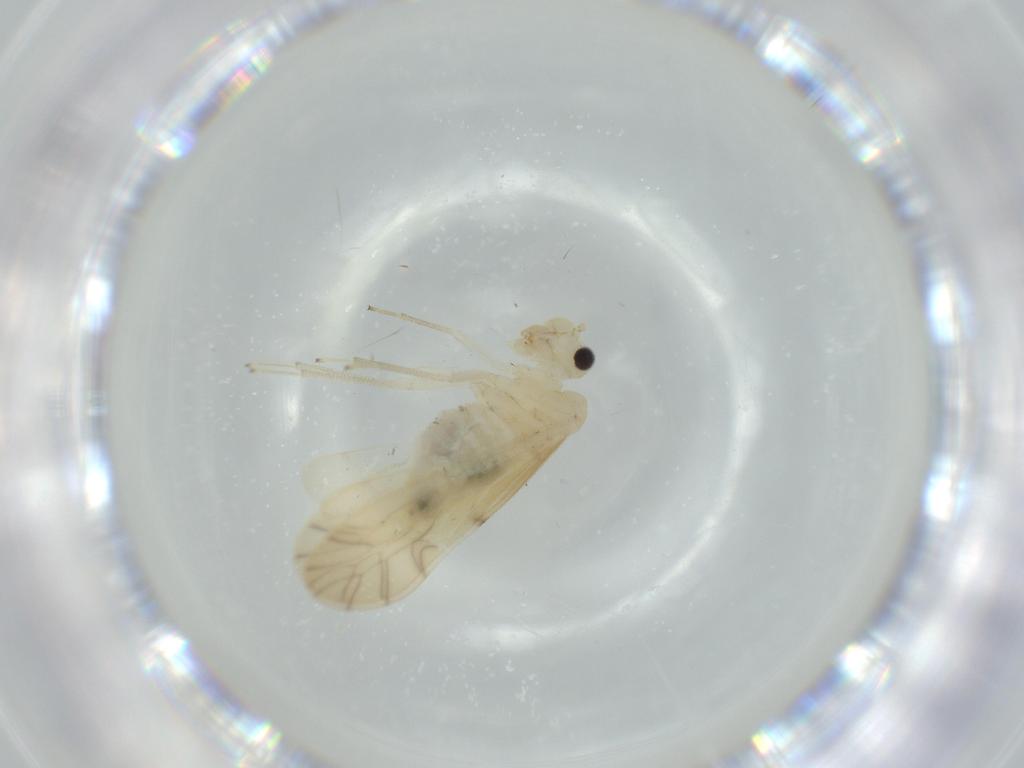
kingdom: Animalia
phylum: Arthropoda
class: Insecta
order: Psocodea
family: Caeciliusidae
